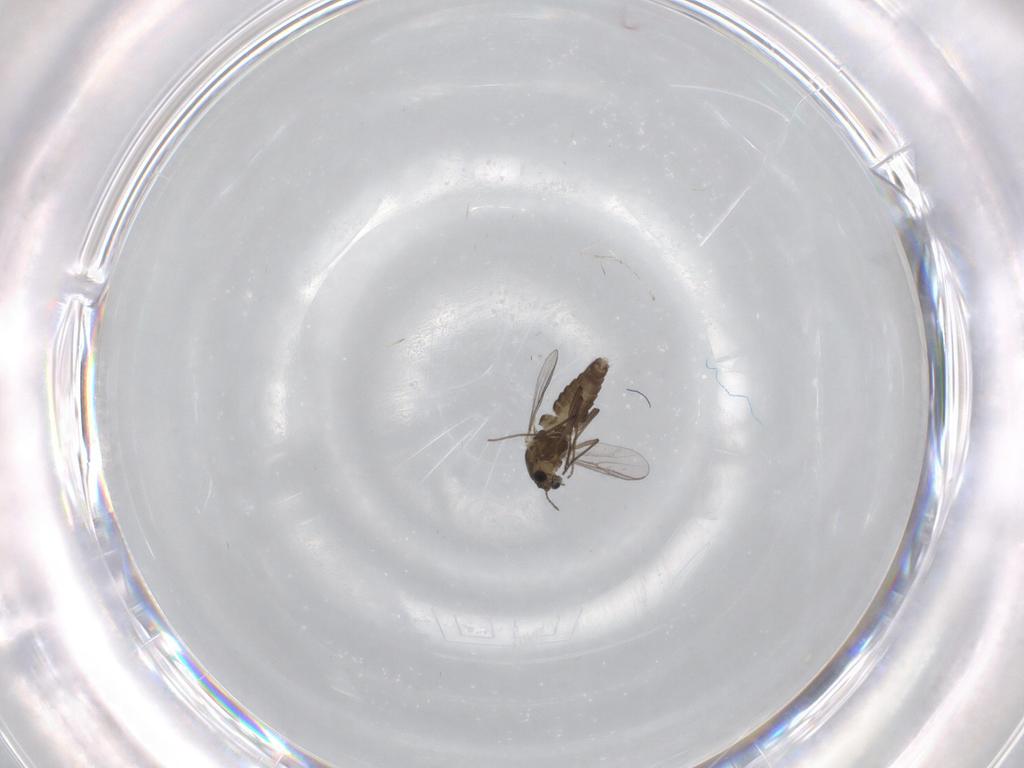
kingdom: Animalia
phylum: Arthropoda
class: Insecta
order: Diptera
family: Chironomidae
